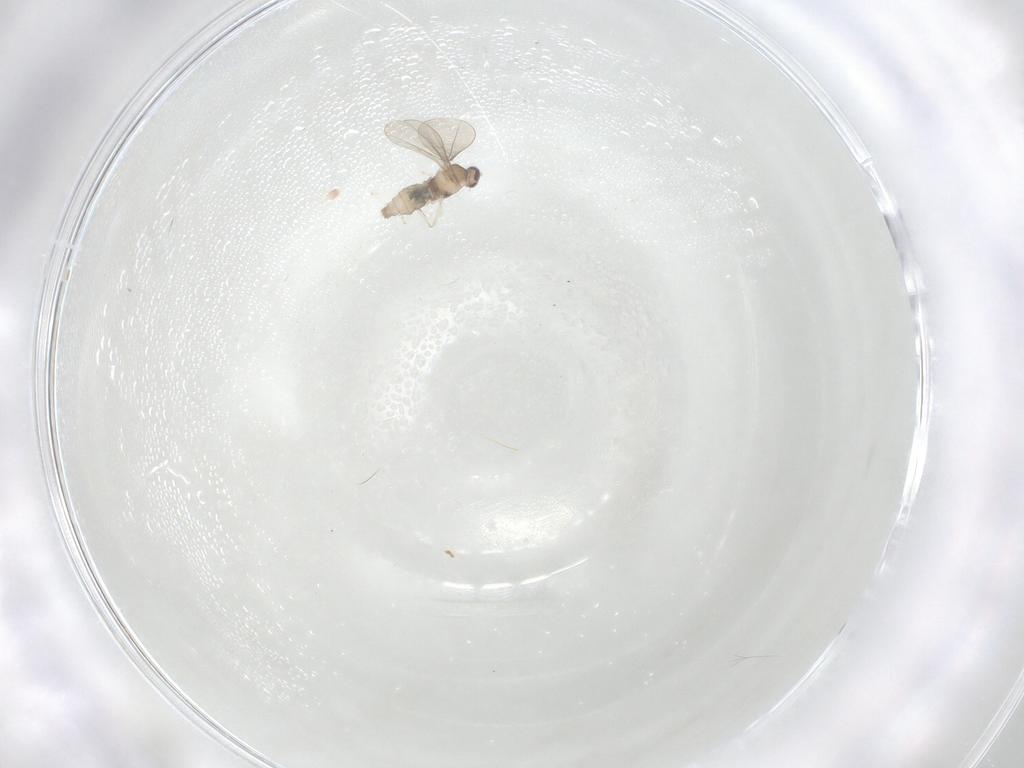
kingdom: Animalia
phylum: Arthropoda
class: Insecta
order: Diptera
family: Cecidomyiidae
